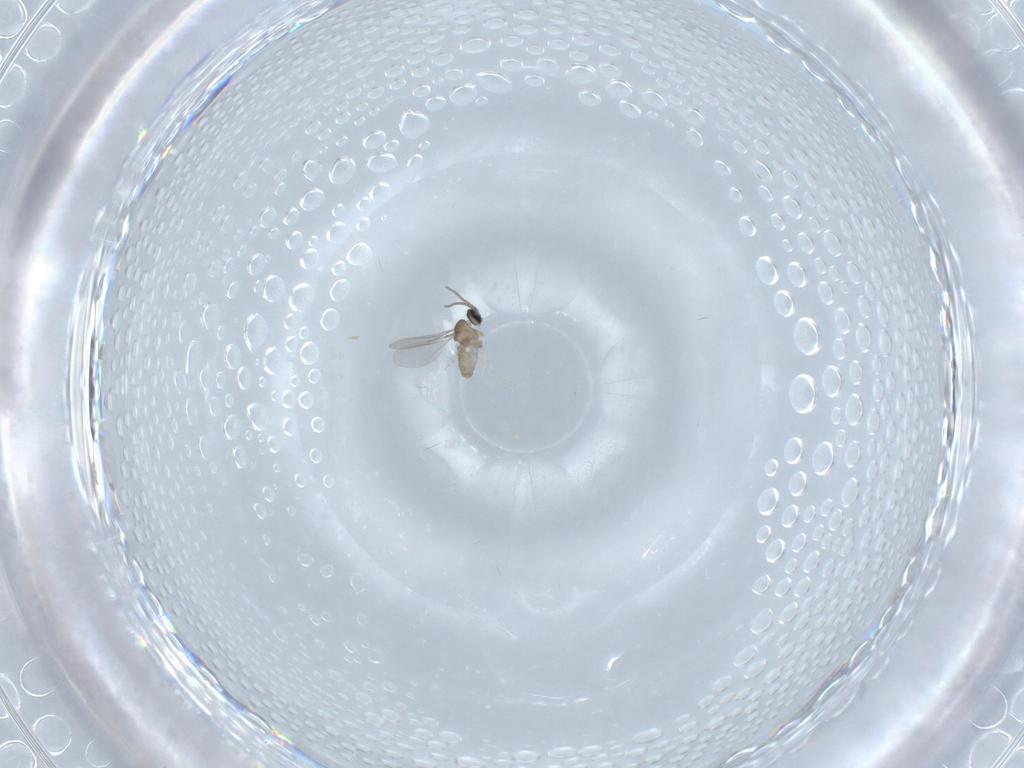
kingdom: Animalia
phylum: Arthropoda
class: Insecta
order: Diptera
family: Cecidomyiidae
